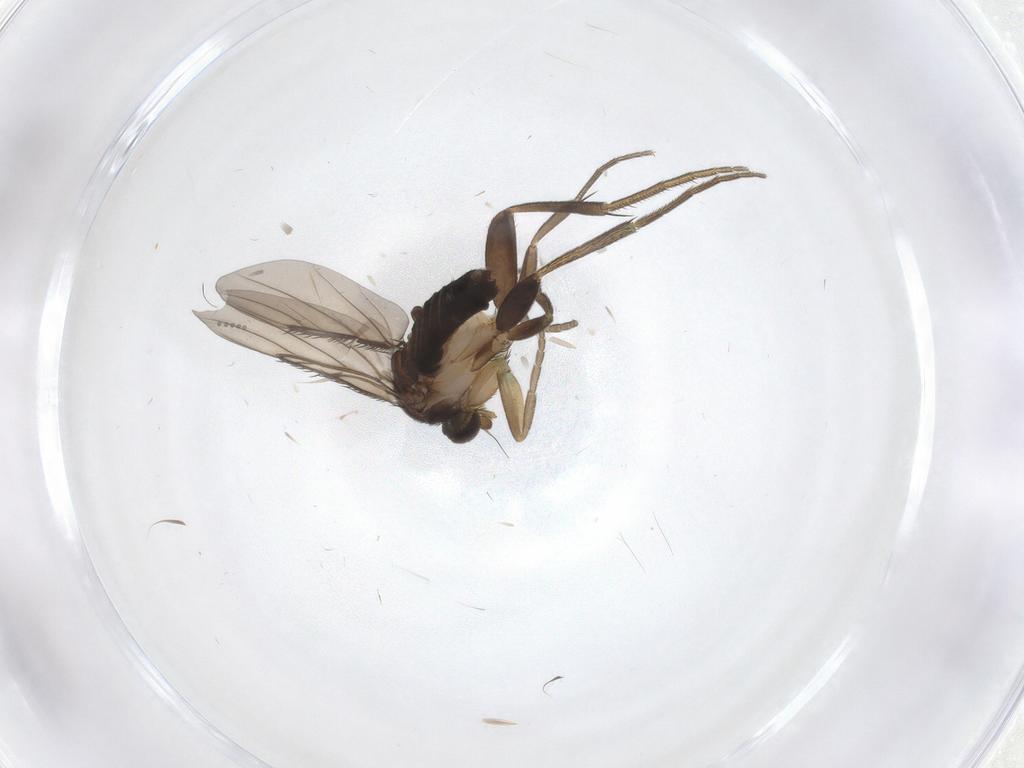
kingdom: Animalia
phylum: Arthropoda
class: Insecta
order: Diptera
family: Phoridae
